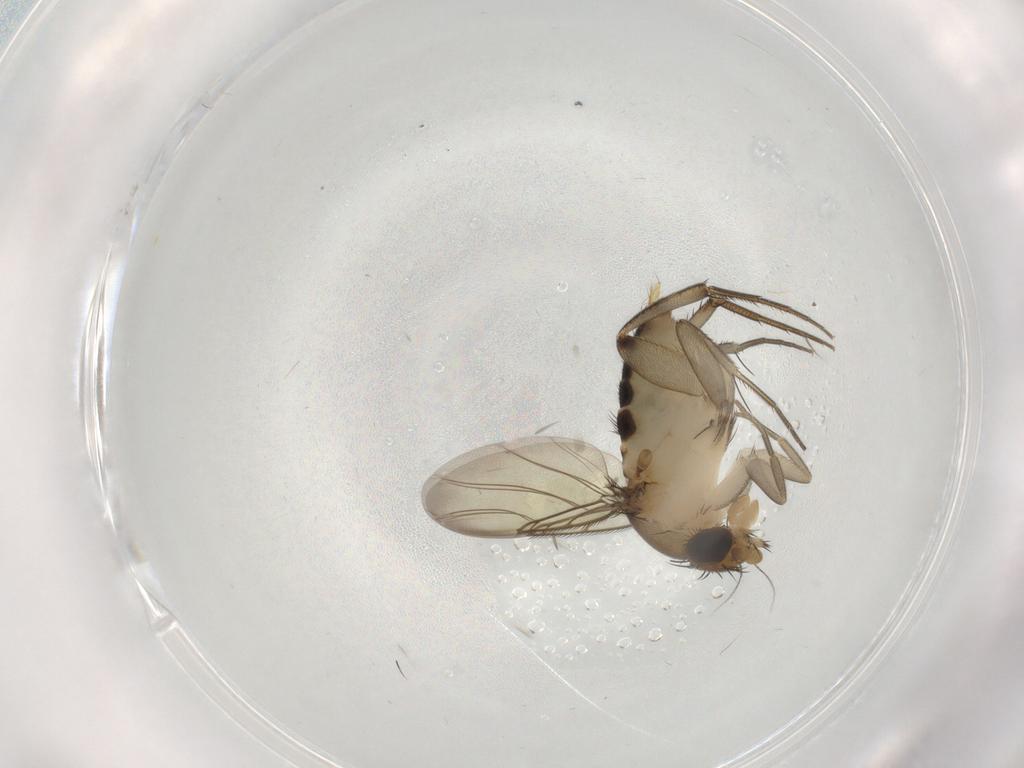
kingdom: Animalia
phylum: Arthropoda
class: Insecta
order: Diptera
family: Phoridae
